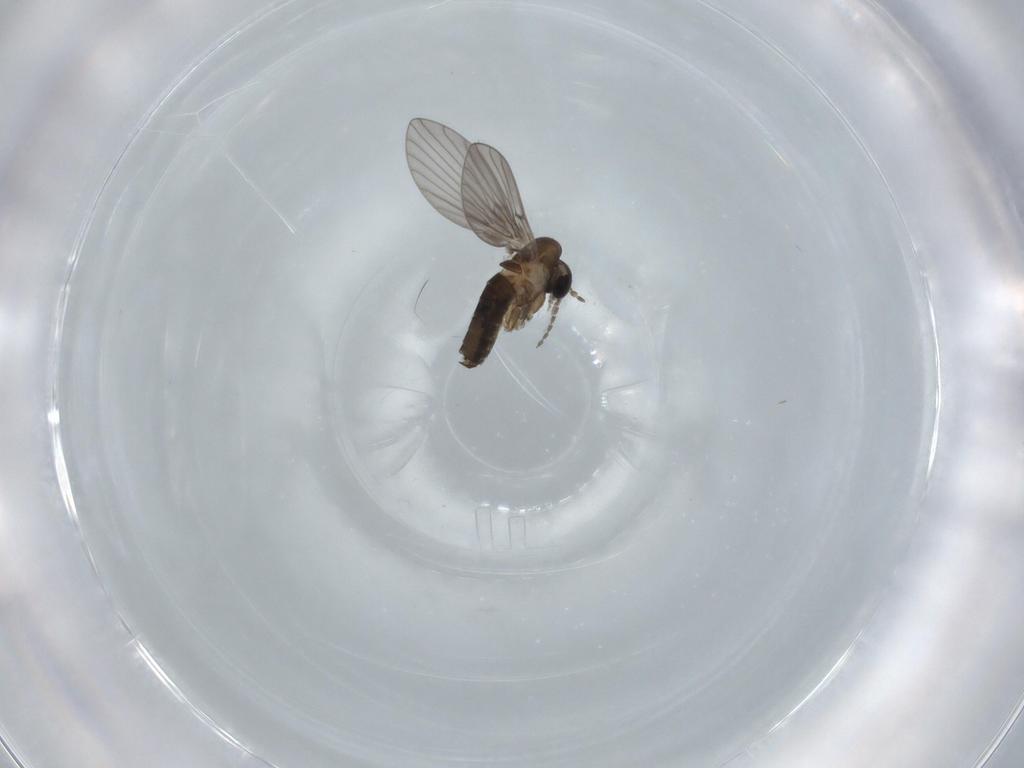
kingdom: Animalia
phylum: Arthropoda
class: Insecta
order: Diptera
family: Psychodidae
